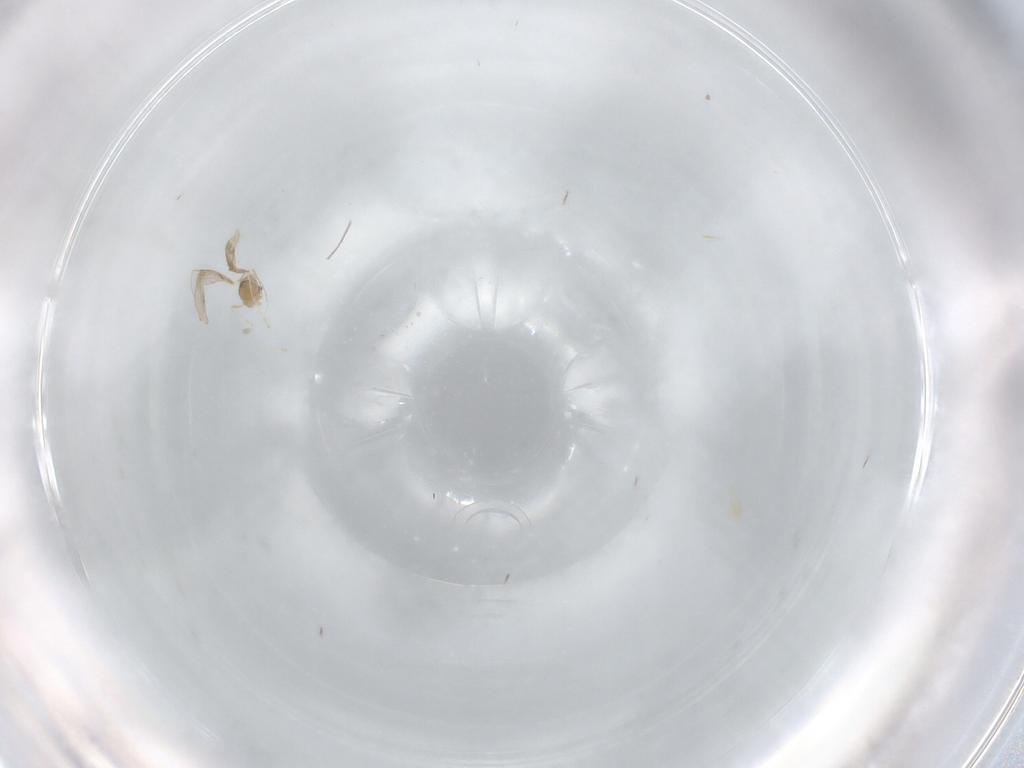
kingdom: Animalia
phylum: Arthropoda
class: Insecta
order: Diptera
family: Cecidomyiidae
